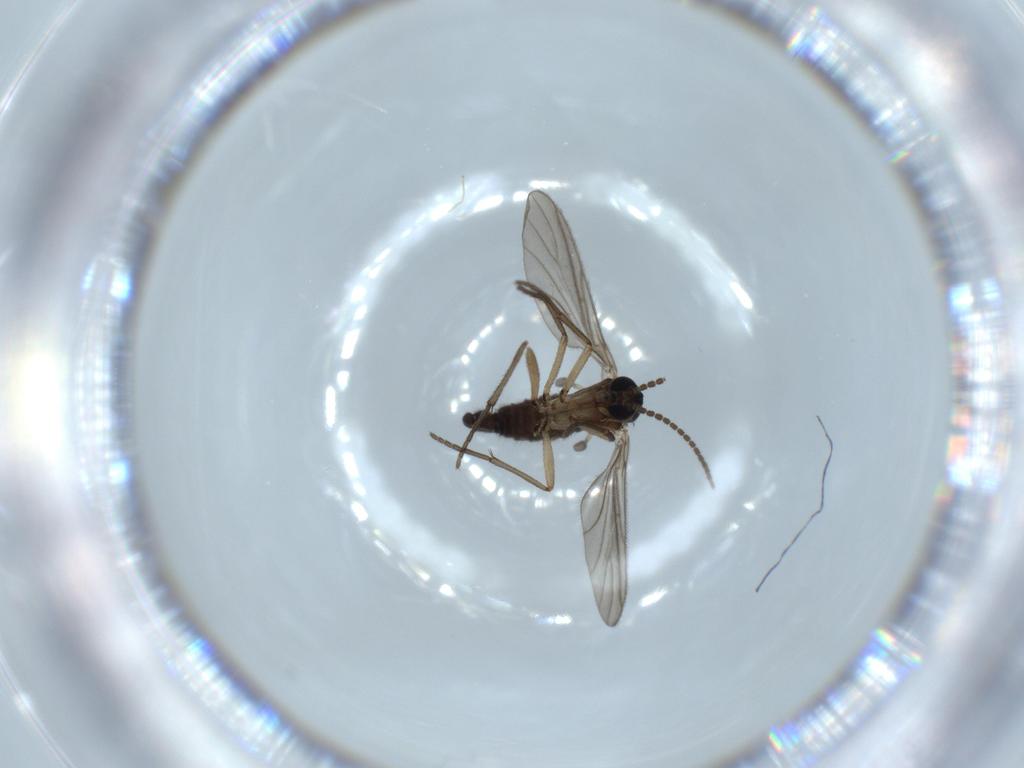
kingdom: Animalia
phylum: Arthropoda
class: Insecta
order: Diptera
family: Sciaridae
